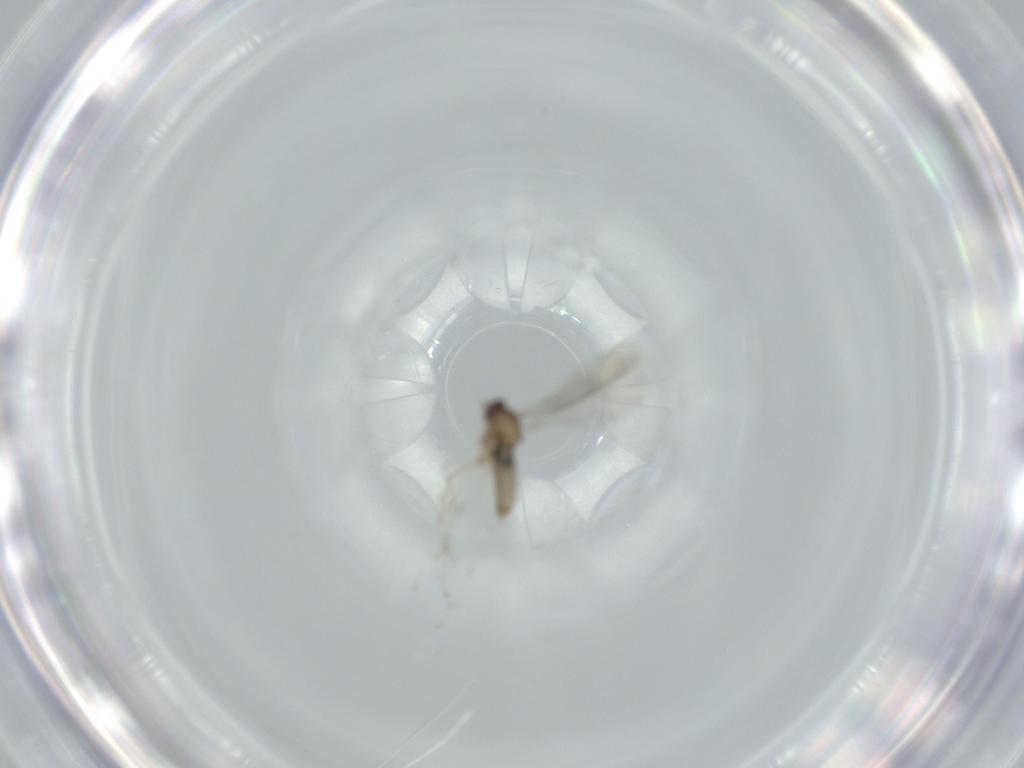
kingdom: Animalia
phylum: Arthropoda
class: Insecta
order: Diptera
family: Cecidomyiidae
